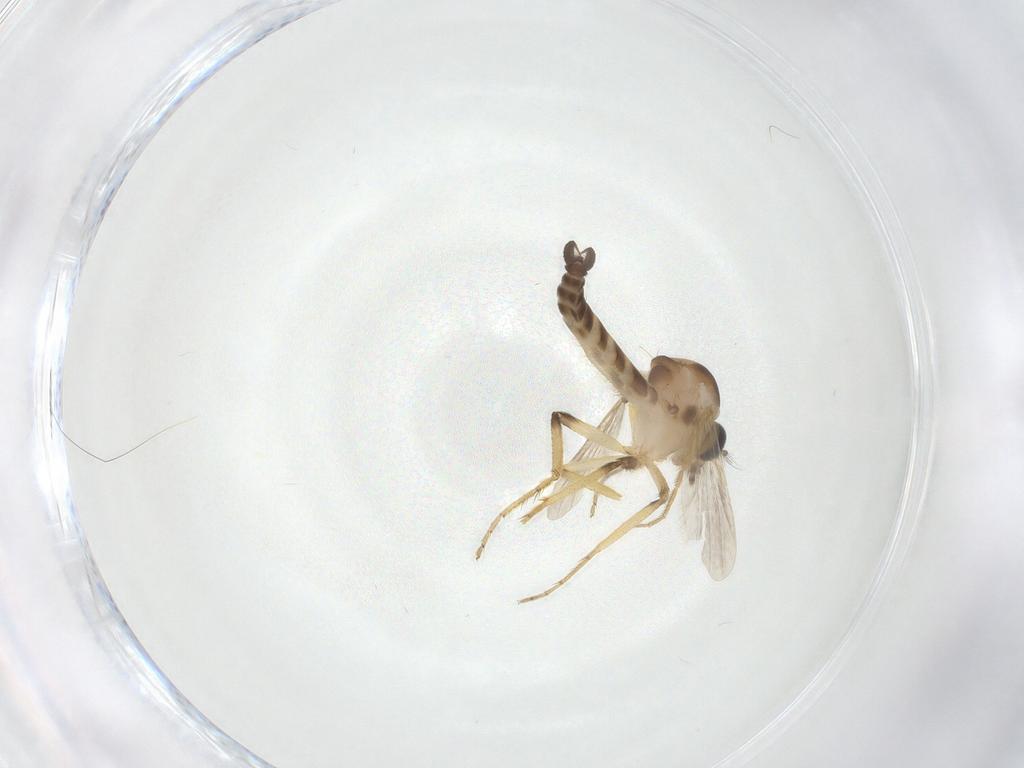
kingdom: Animalia
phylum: Arthropoda
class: Insecta
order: Diptera
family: Ceratopogonidae
